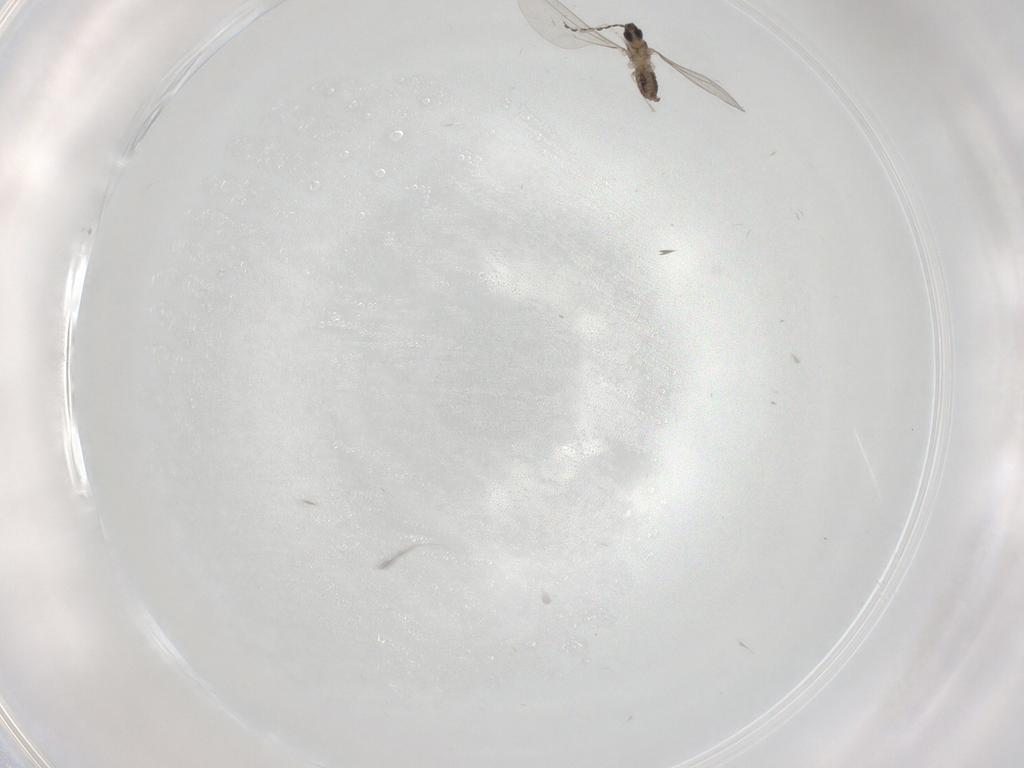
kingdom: Animalia
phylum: Arthropoda
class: Insecta
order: Diptera
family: Cecidomyiidae
